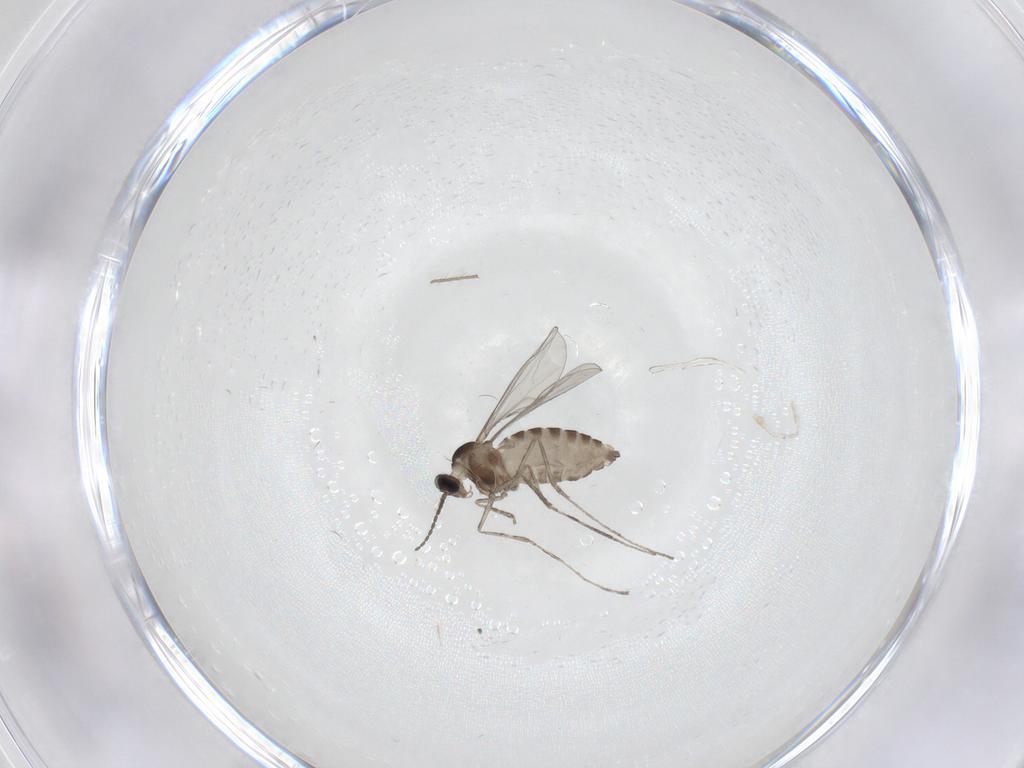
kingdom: Animalia
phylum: Arthropoda
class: Insecta
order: Diptera
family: Cecidomyiidae
